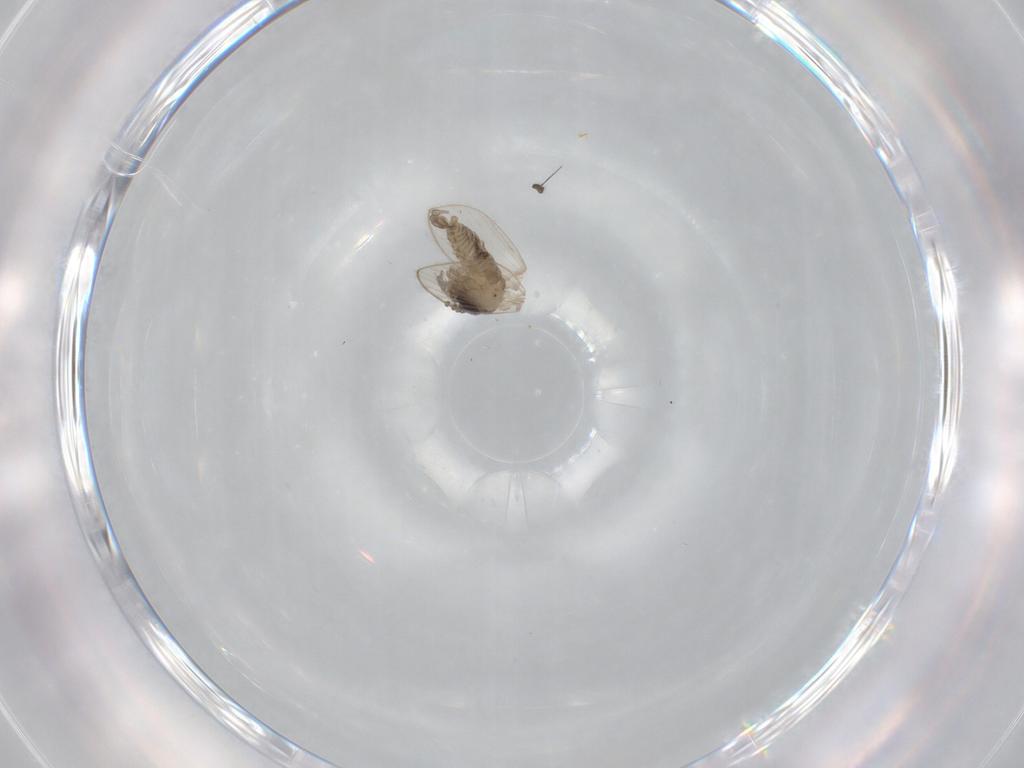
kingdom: Animalia
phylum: Arthropoda
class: Insecta
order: Diptera
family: Psychodidae
